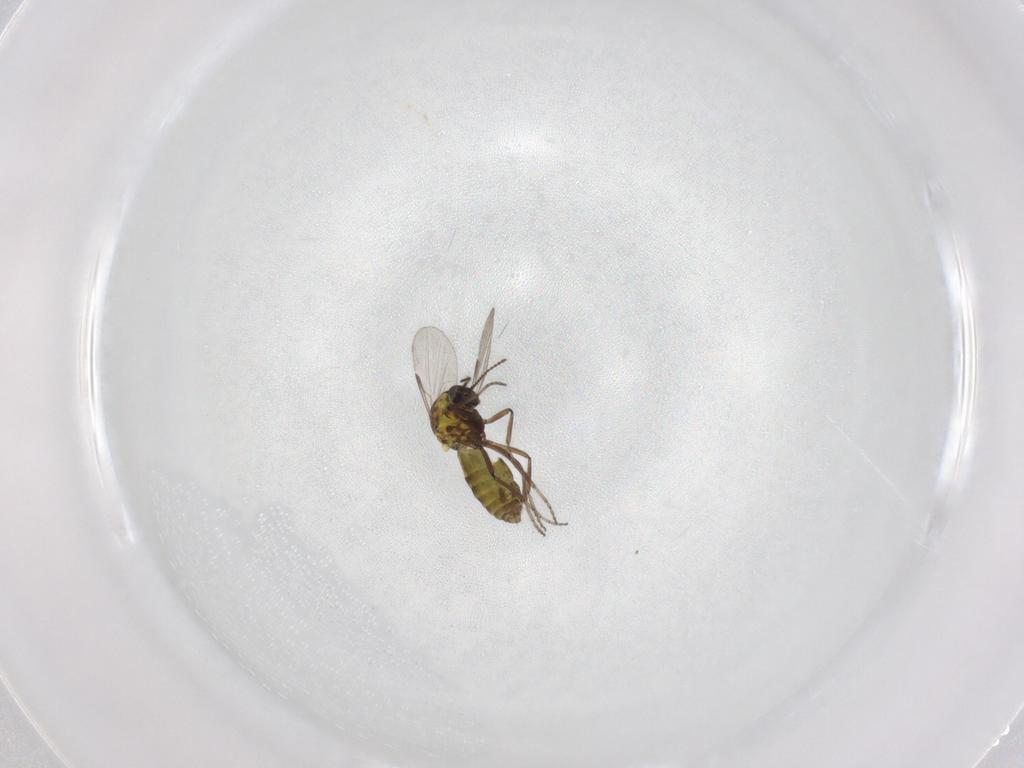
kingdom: Animalia
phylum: Arthropoda
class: Insecta
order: Diptera
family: Ceratopogonidae
